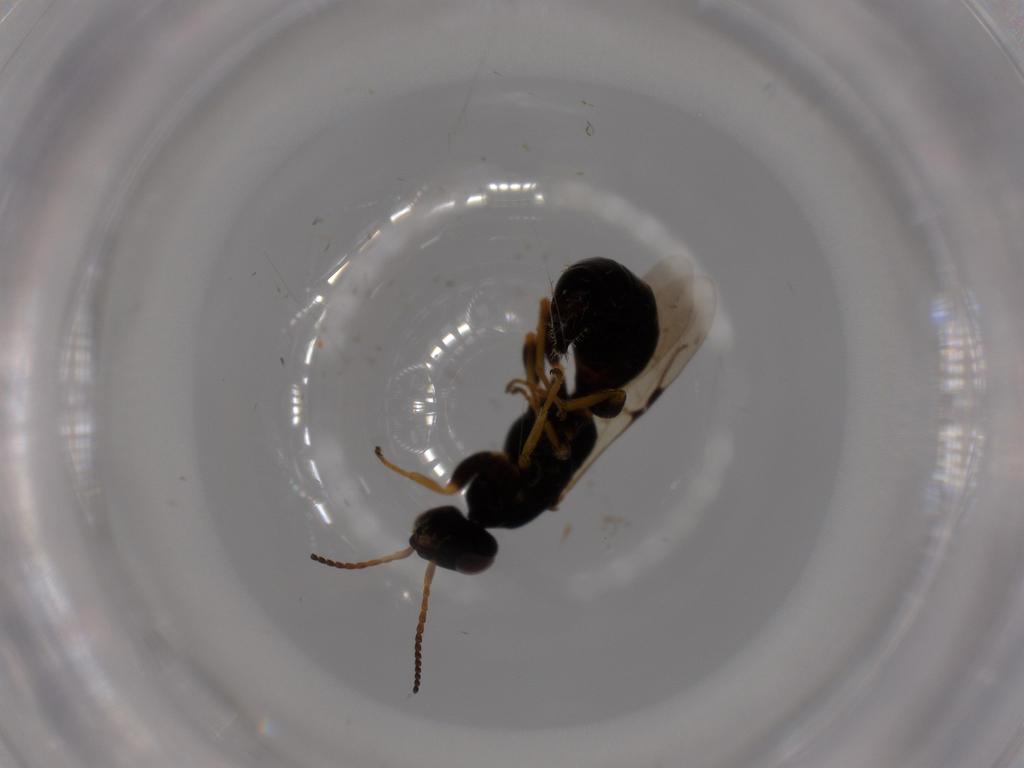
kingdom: Animalia
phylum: Arthropoda
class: Insecta
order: Hymenoptera
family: Bethylidae
